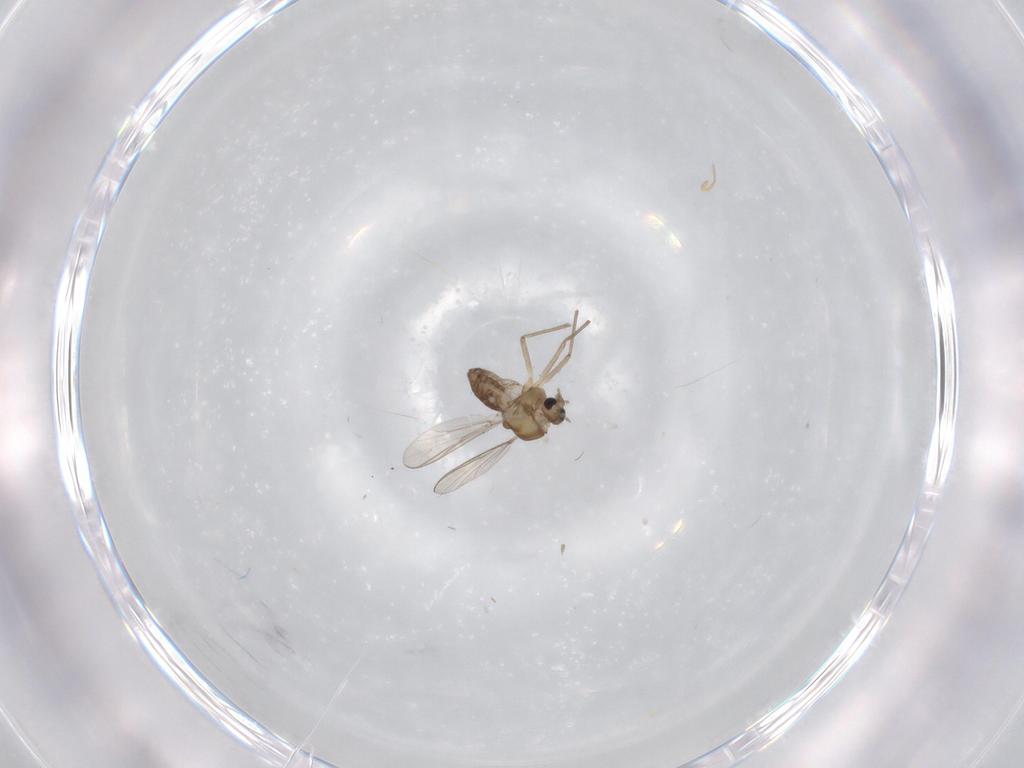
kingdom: Animalia
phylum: Arthropoda
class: Insecta
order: Diptera
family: Chironomidae
